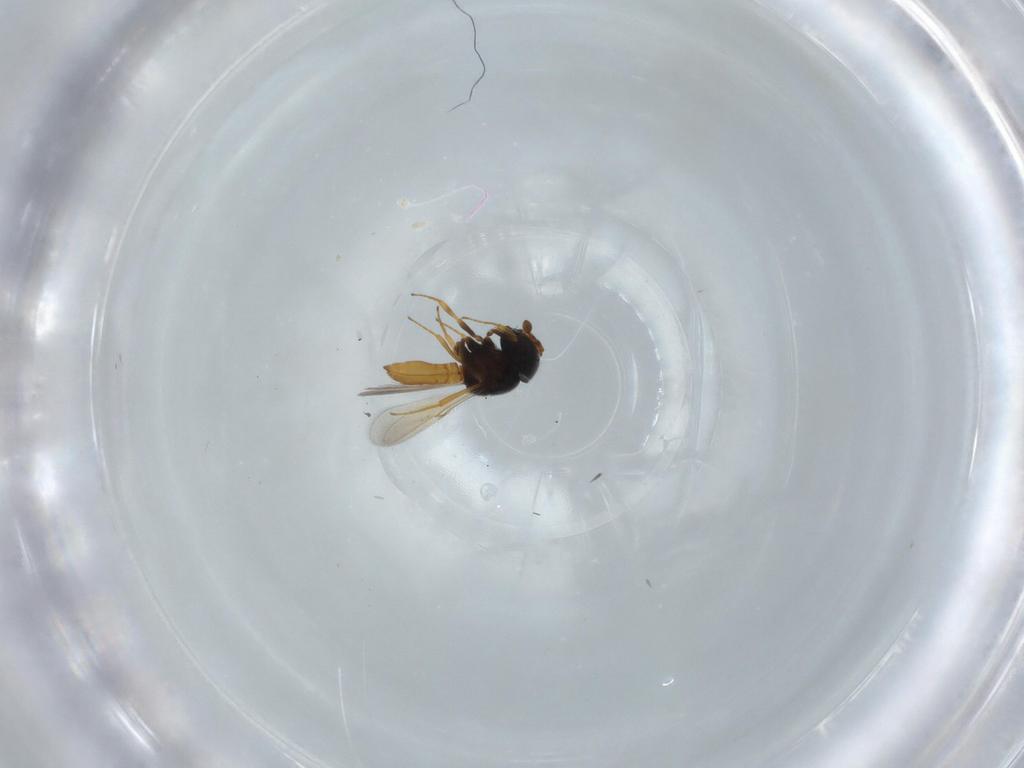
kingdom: Animalia
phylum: Arthropoda
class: Insecta
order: Hymenoptera
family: Scelionidae
